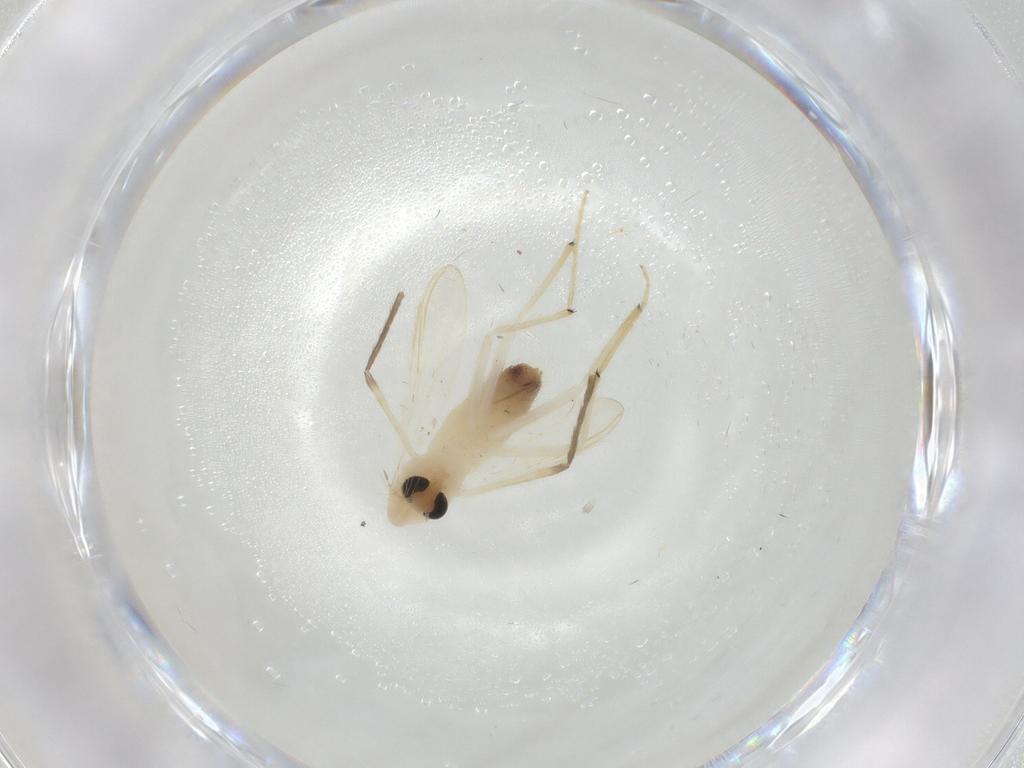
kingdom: Animalia
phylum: Arthropoda
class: Insecta
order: Diptera
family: Chironomidae
